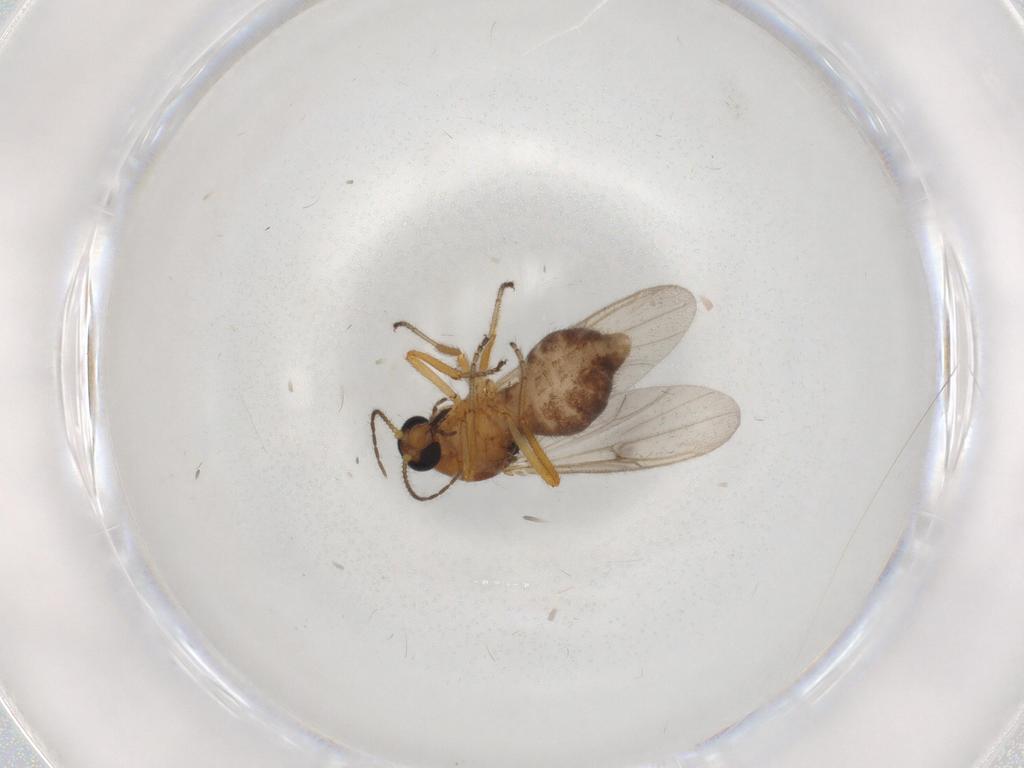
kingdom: Animalia
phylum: Arthropoda
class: Insecta
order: Diptera
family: Ceratopogonidae
